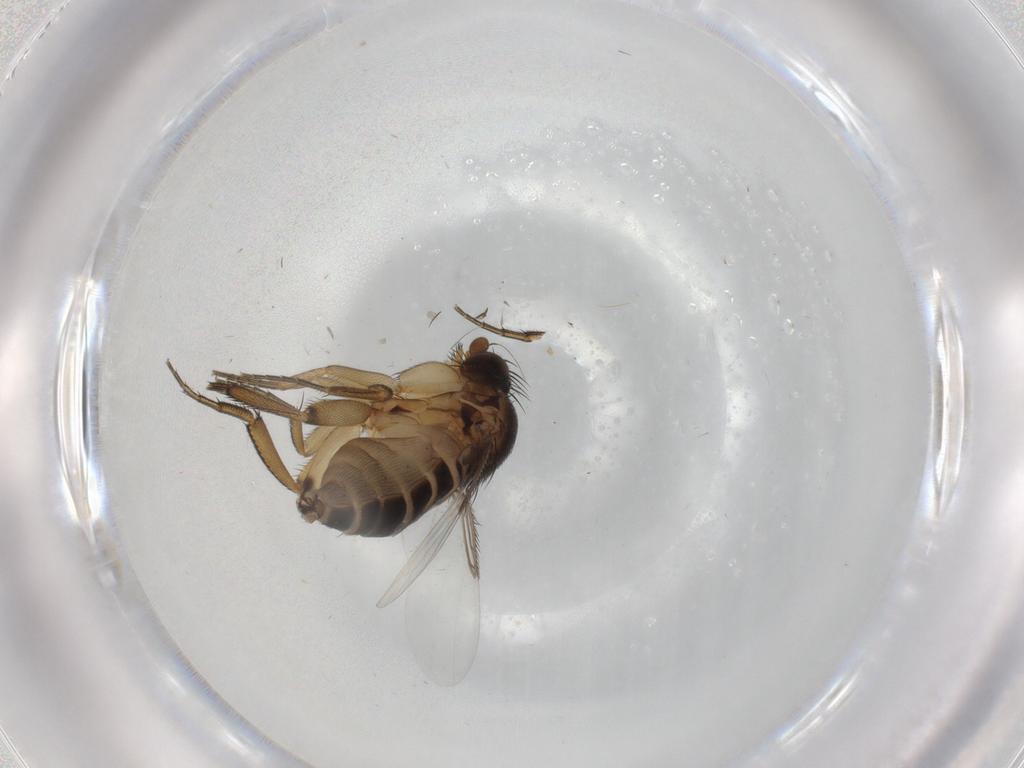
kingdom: Animalia
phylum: Arthropoda
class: Insecta
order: Diptera
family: Phoridae
